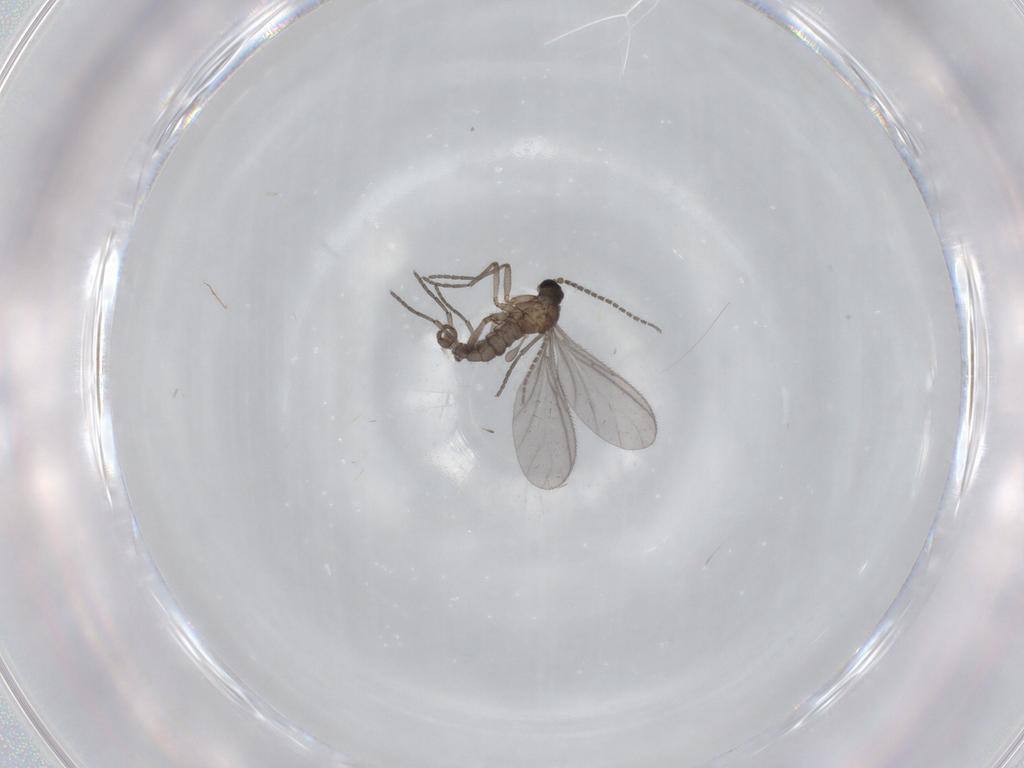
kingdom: Animalia
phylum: Arthropoda
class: Insecta
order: Diptera
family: Sciaridae
